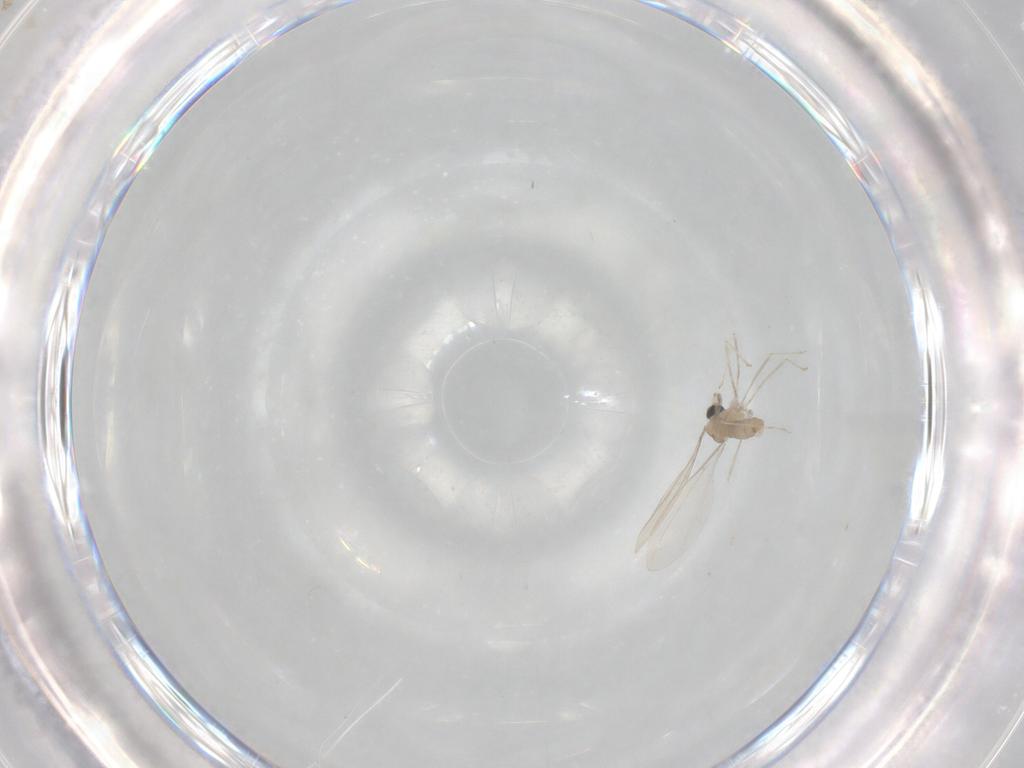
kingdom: Animalia
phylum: Arthropoda
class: Insecta
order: Diptera
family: Cecidomyiidae
